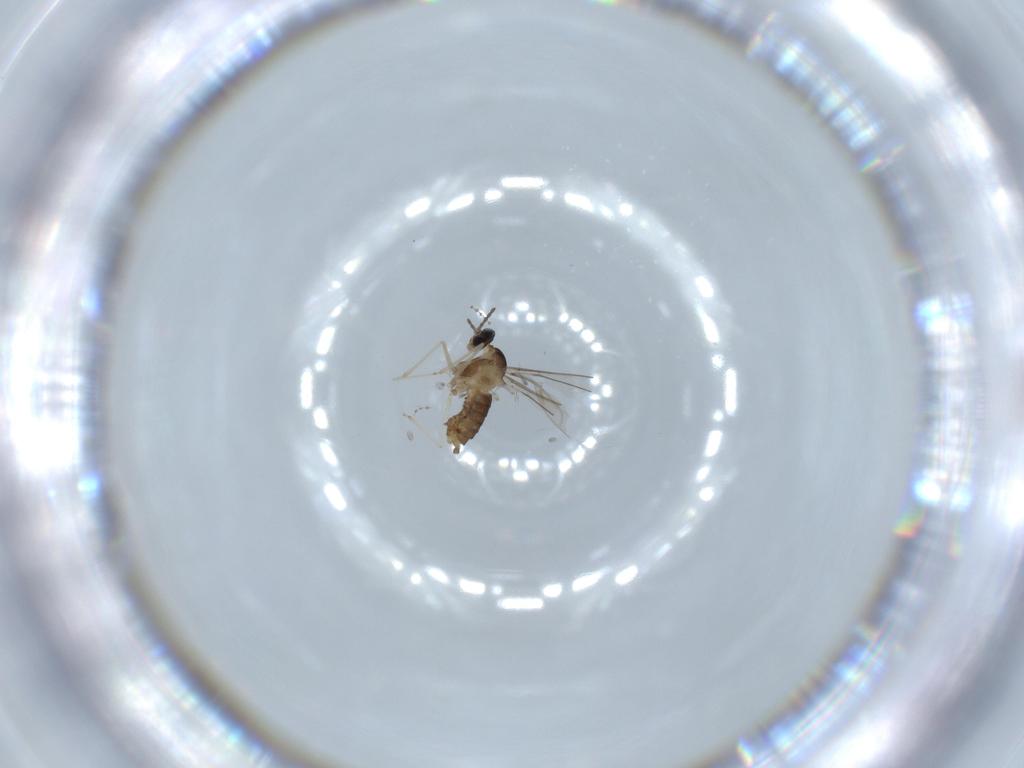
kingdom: Animalia
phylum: Arthropoda
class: Insecta
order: Diptera
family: Cecidomyiidae
